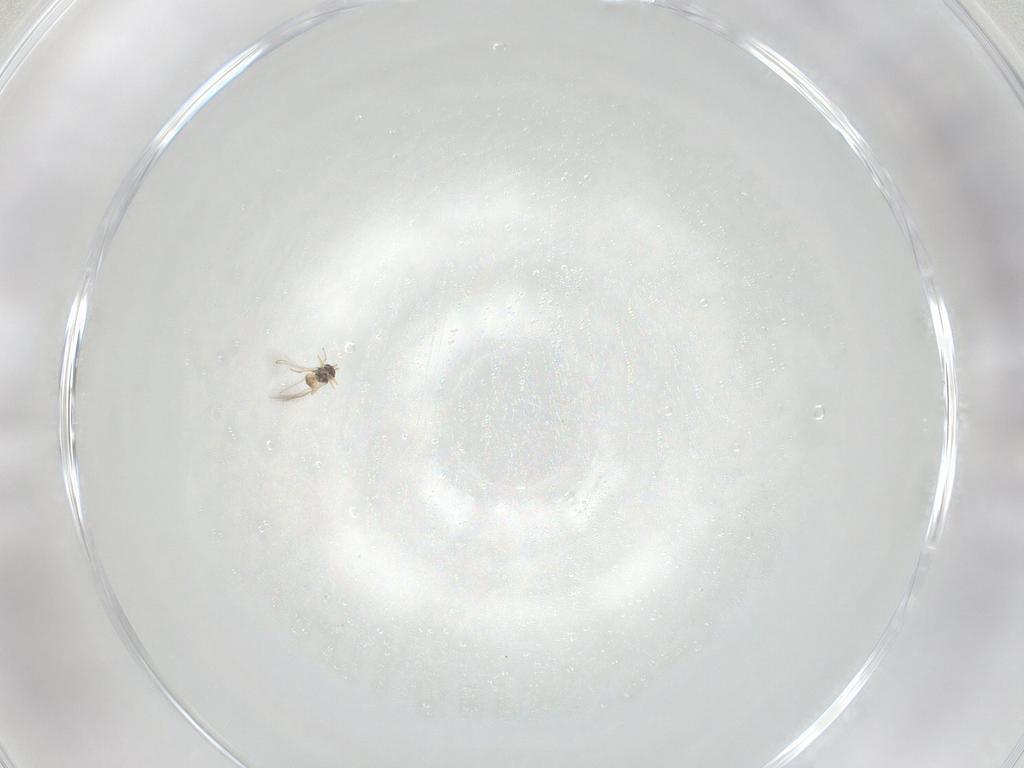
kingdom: Animalia
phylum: Arthropoda
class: Insecta
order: Hymenoptera
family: Mymaridae
